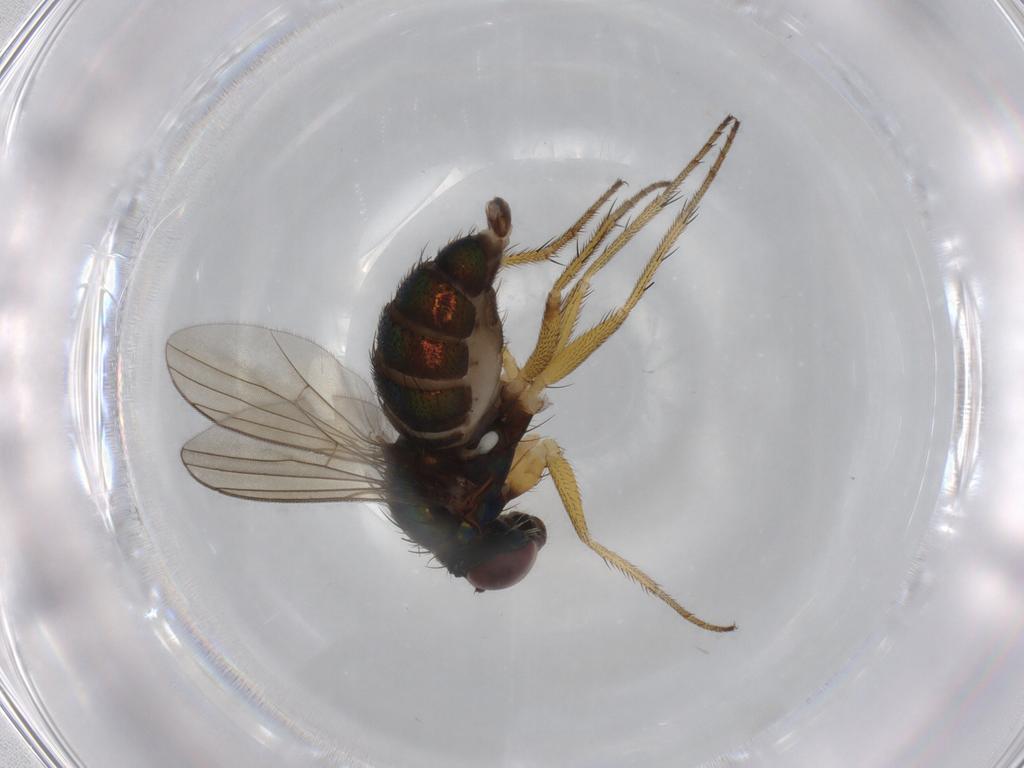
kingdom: Animalia
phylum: Arthropoda
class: Insecta
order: Diptera
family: Dolichopodidae
